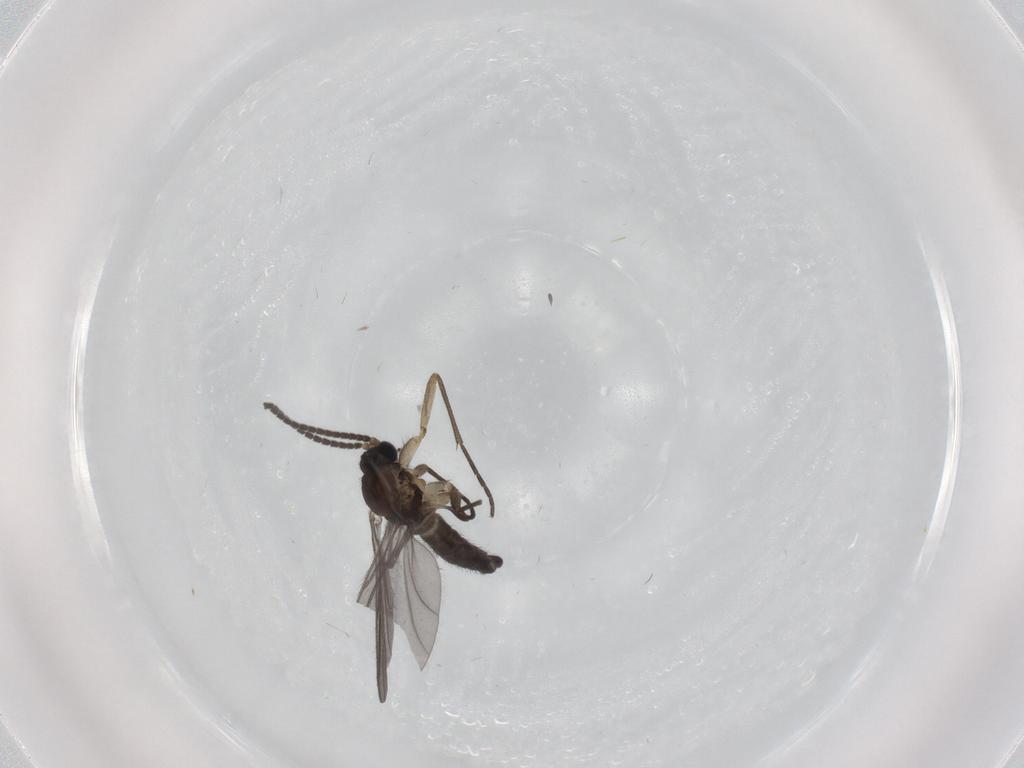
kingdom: Animalia
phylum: Arthropoda
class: Insecta
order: Diptera
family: Sciaridae
